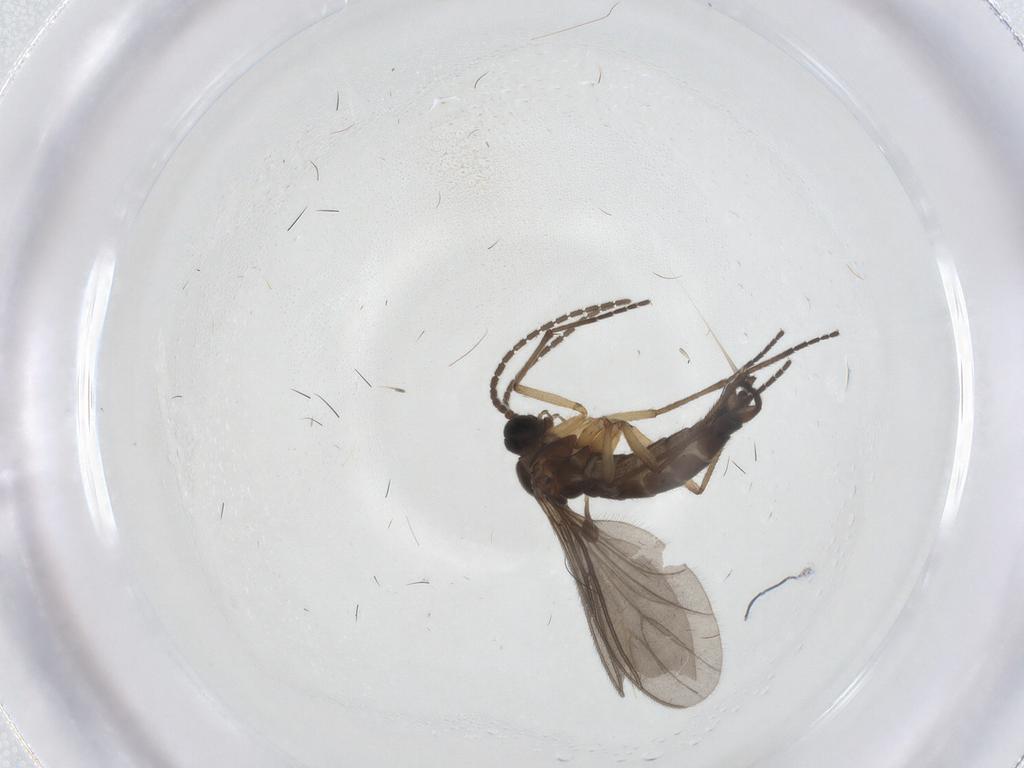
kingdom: Animalia
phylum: Arthropoda
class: Insecta
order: Diptera
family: Sciaridae
